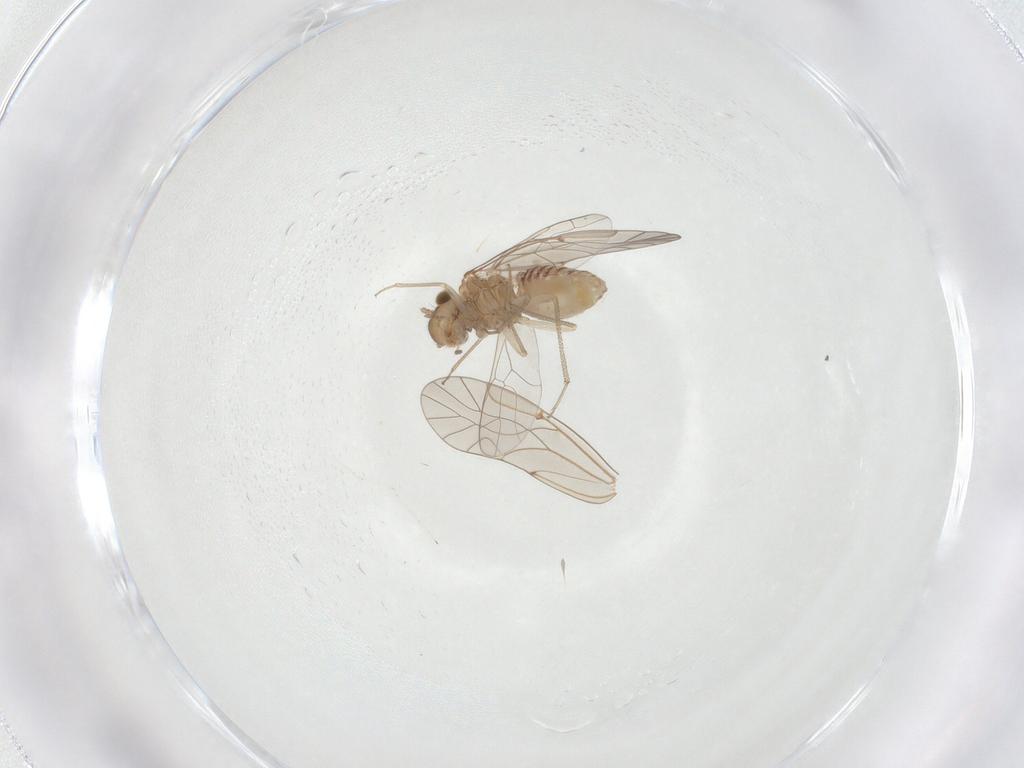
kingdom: Animalia
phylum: Arthropoda
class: Insecta
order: Psocodea
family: Lachesillidae
